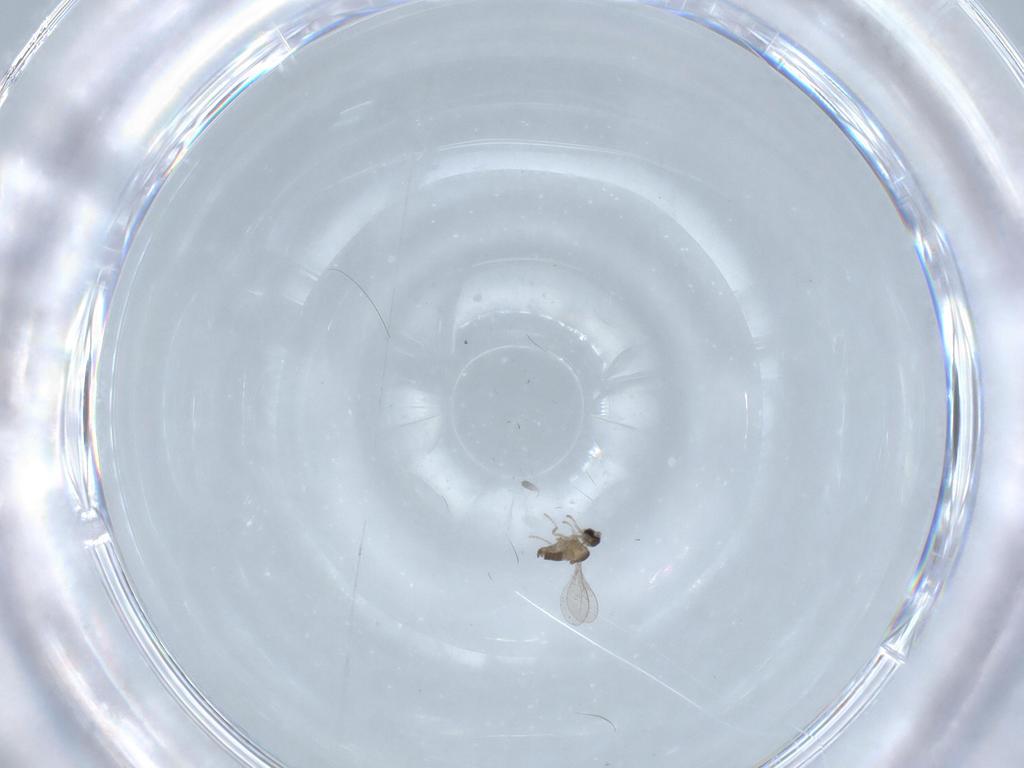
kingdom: Animalia
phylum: Arthropoda
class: Insecta
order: Diptera
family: Cecidomyiidae
